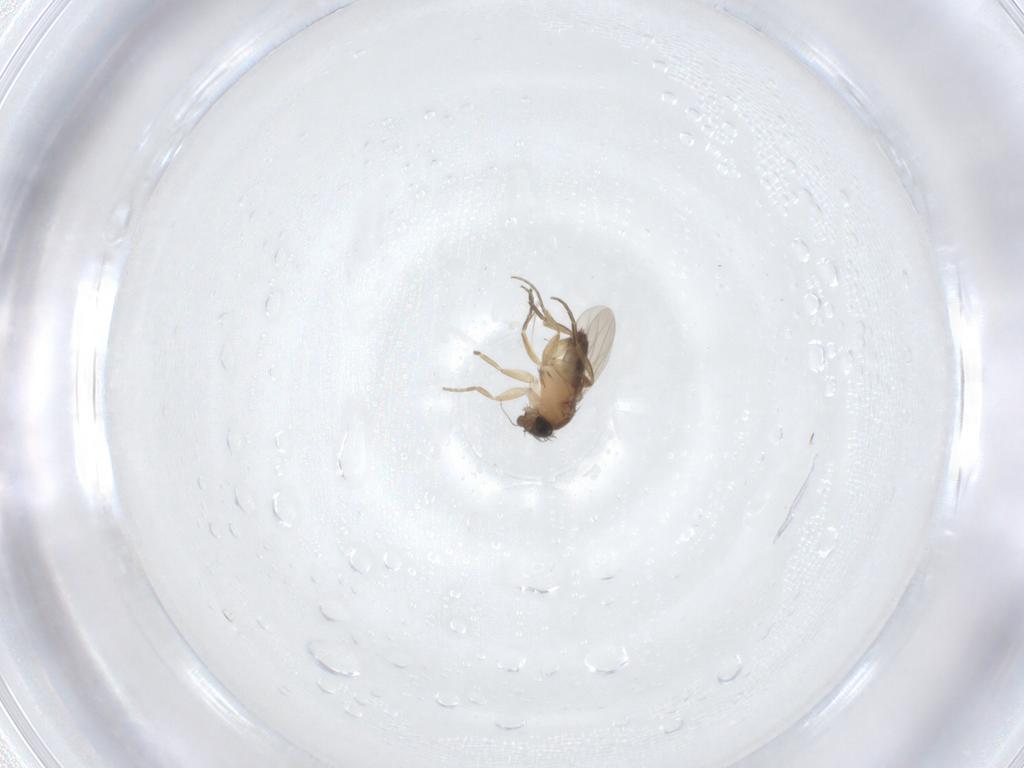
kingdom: Animalia
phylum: Arthropoda
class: Insecta
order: Diptera
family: Phoridae
